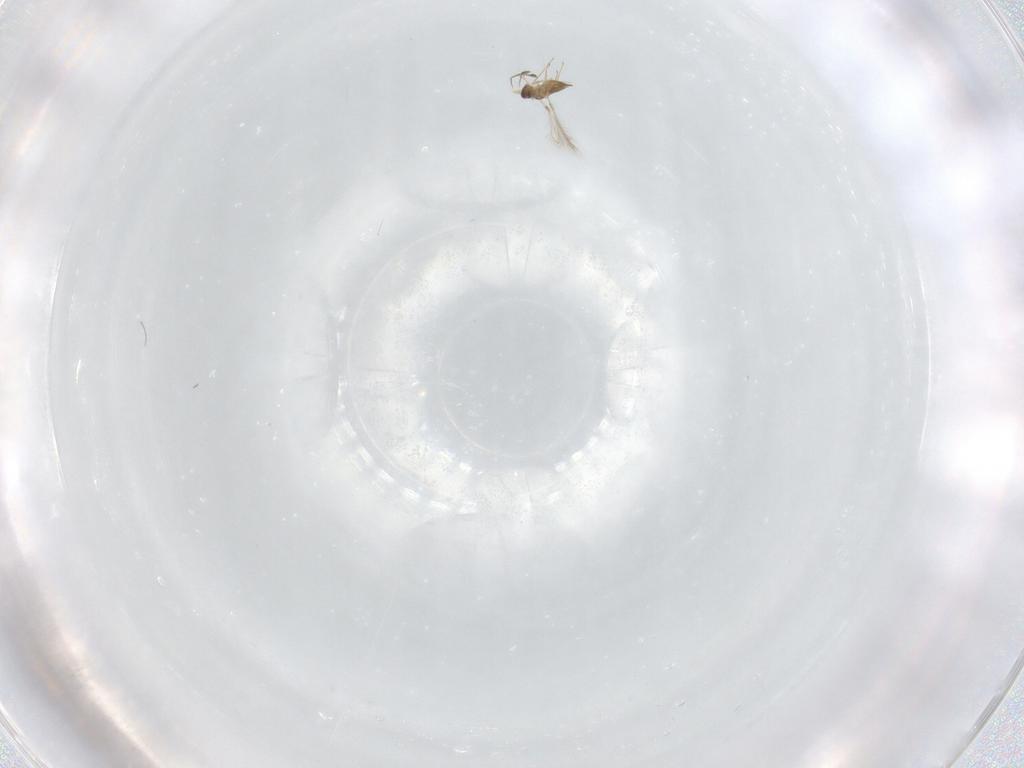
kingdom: Animalia
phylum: Arthropoda
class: Insecta
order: Hymenoptera
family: Mymaridae
